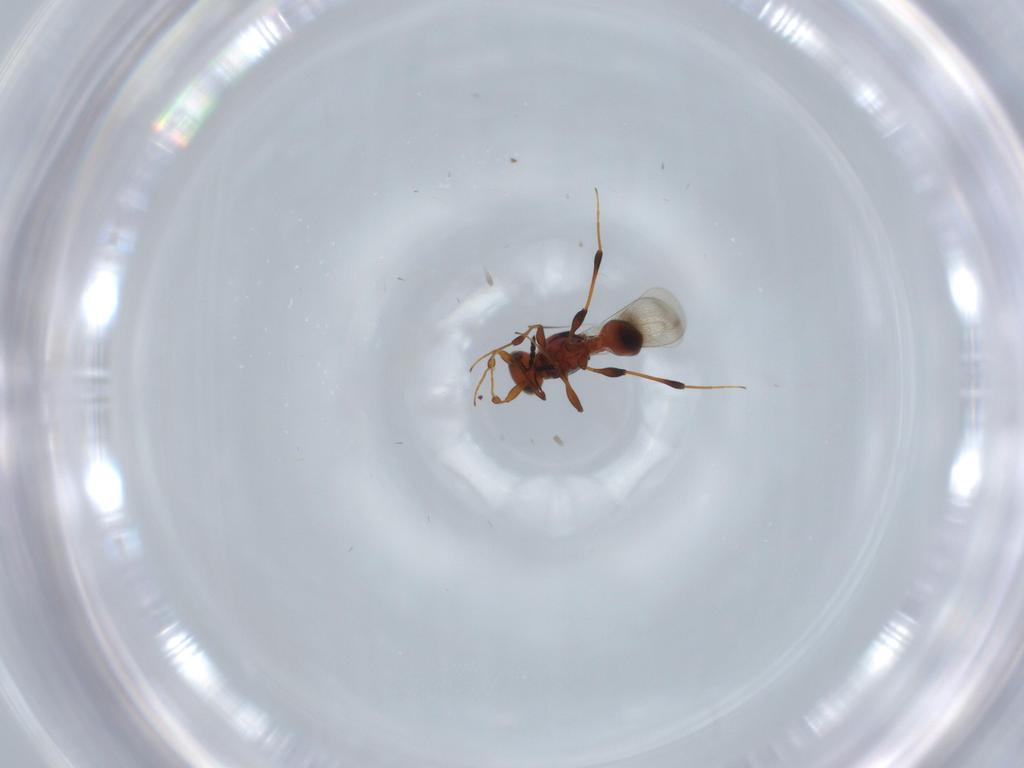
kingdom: Animalia
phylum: Arthropoda
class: Insecta
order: Hymenoptera
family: Platygastridae
